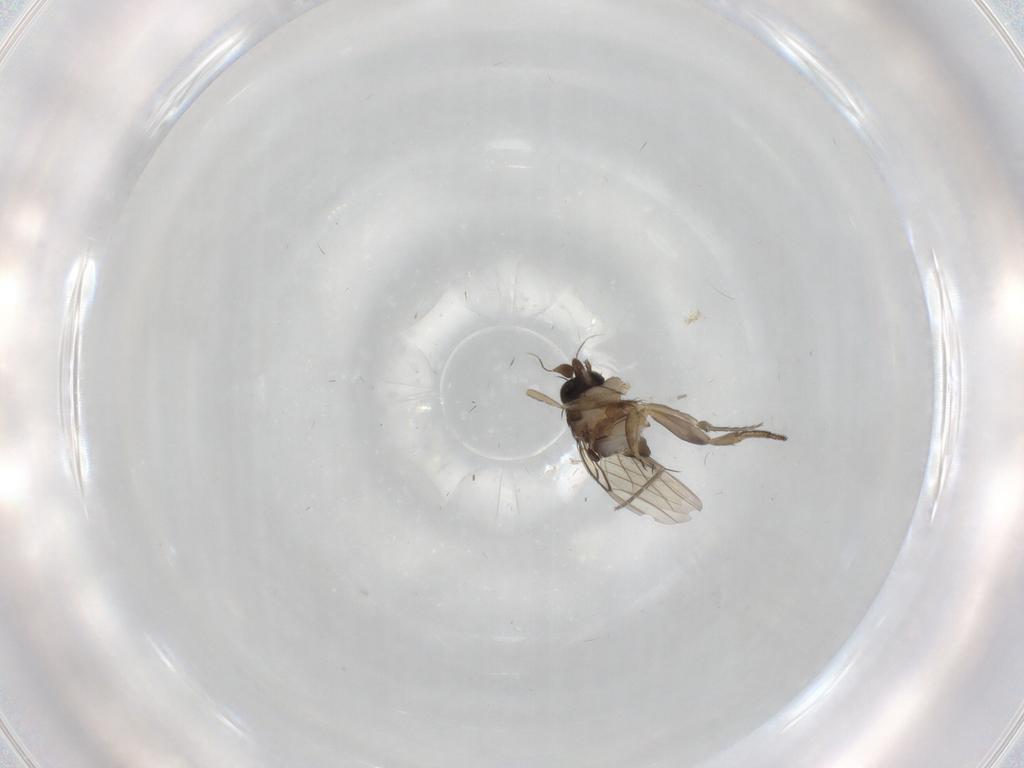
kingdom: Animalia
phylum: Arthropoda
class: Insecta
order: Diptera
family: Phoridae
